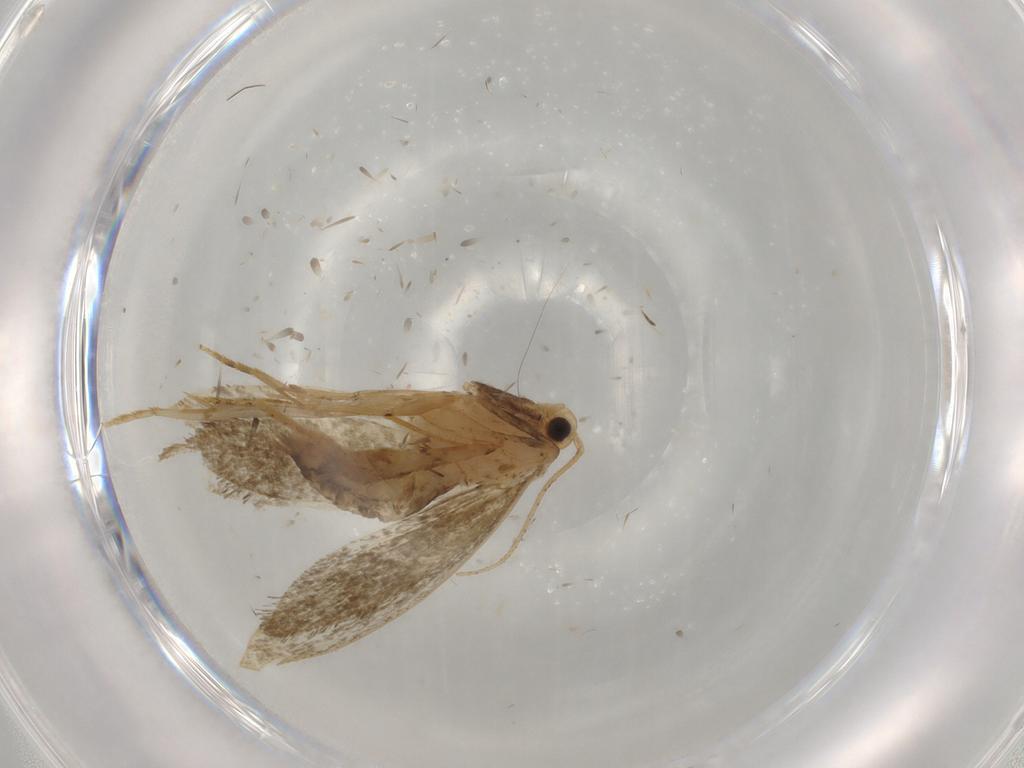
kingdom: Animalia
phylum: Arthropoda
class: Insecta
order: Lepidoptera
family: Pieridae
